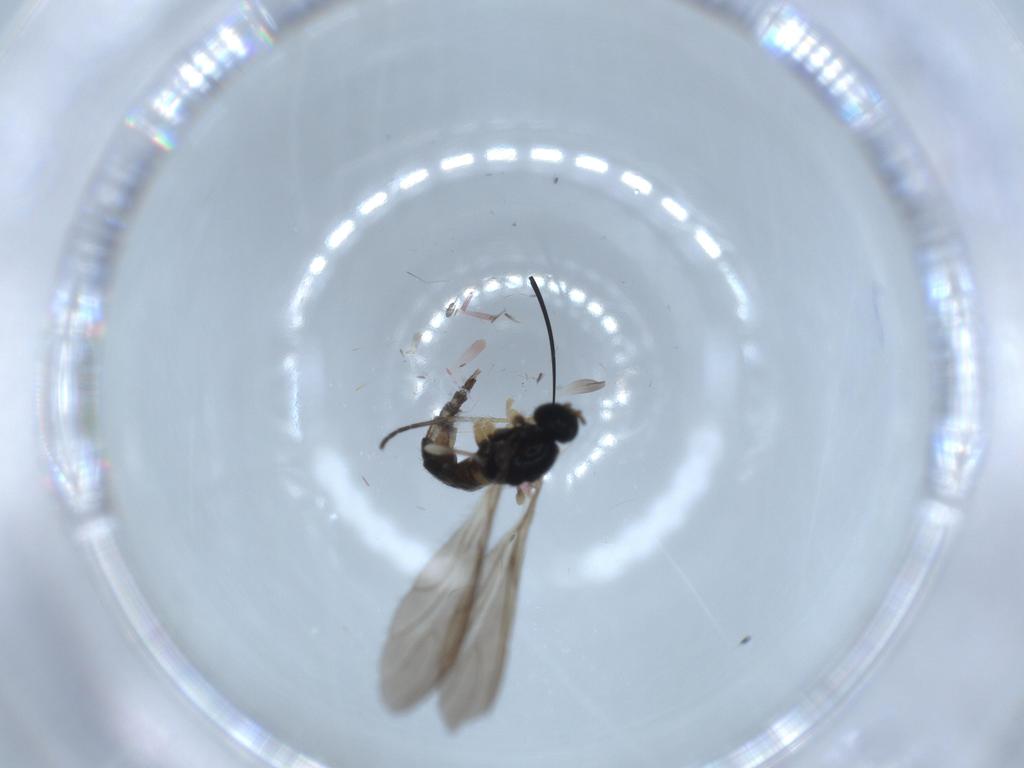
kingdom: Animalia
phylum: Arthropoda
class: Insecta
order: Diptera
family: Sciaridae
